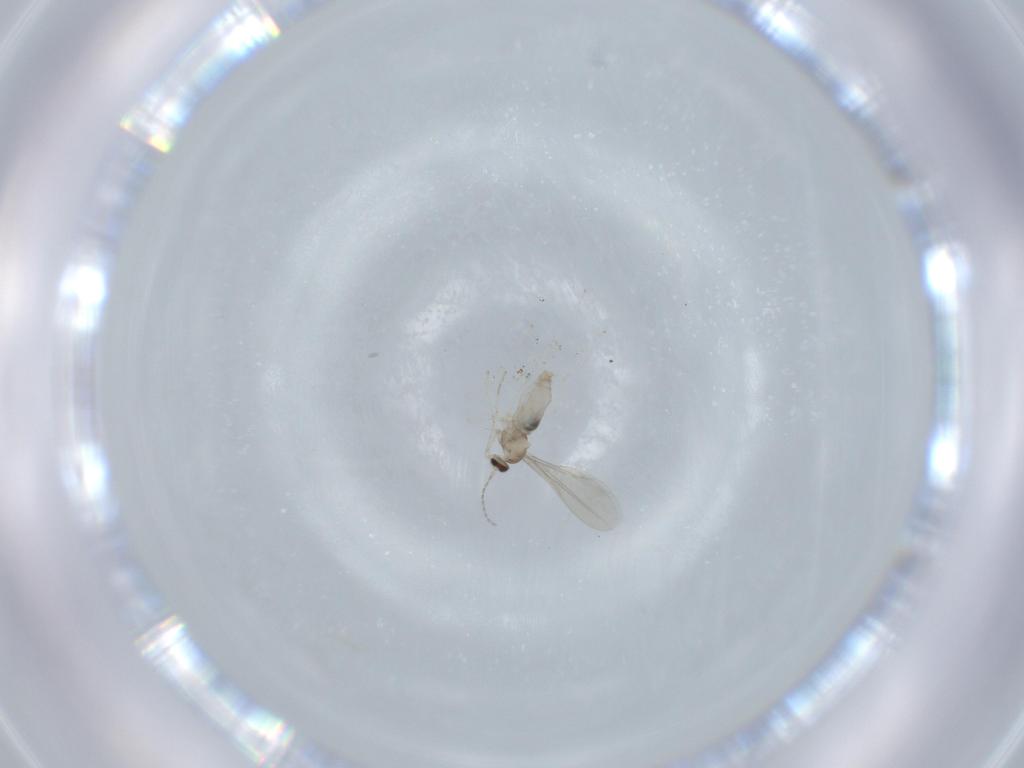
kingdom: Animalia
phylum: Arthropoda
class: Insecta
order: Diptera
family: Cecidomyiidae
